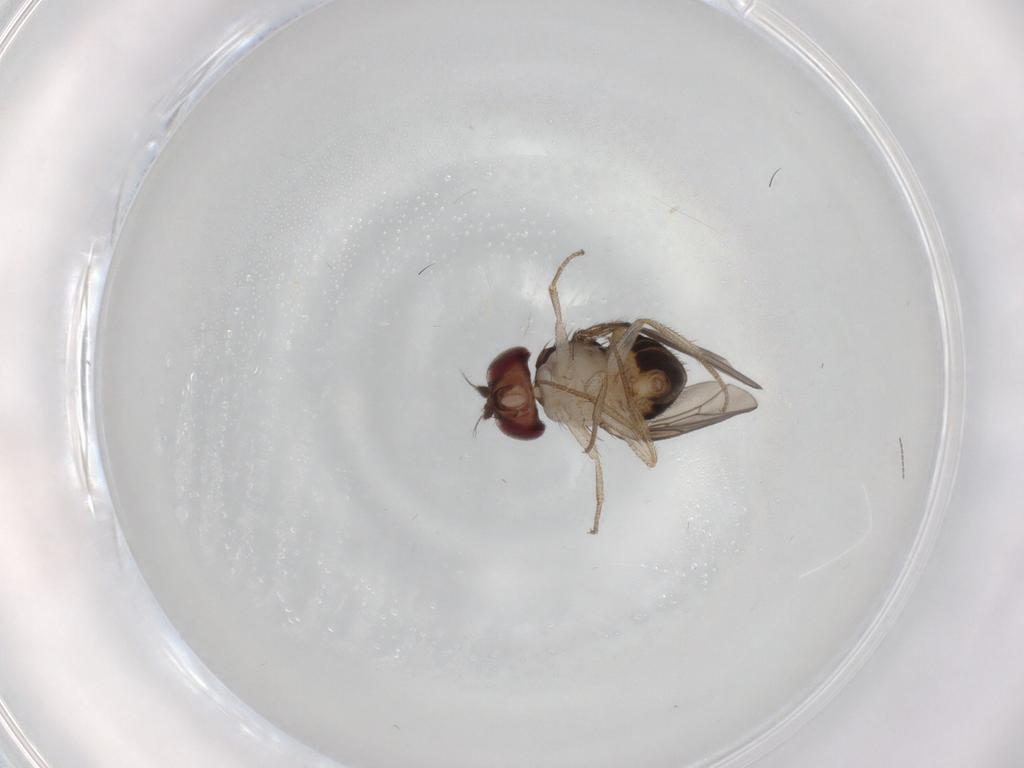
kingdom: Animalia
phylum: Arthropoda
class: Insecta
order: Diptera
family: Drosophilidae
